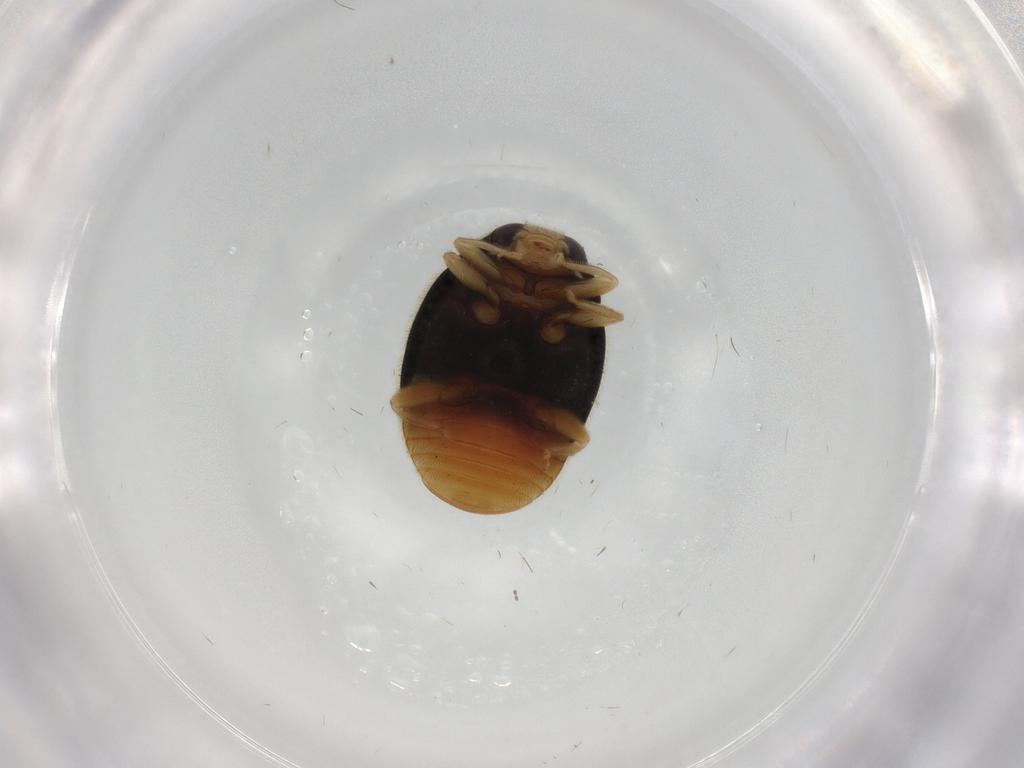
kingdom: Animalia
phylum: Arthropoda
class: Insecta
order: Coleoptera
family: Coccinellidae
